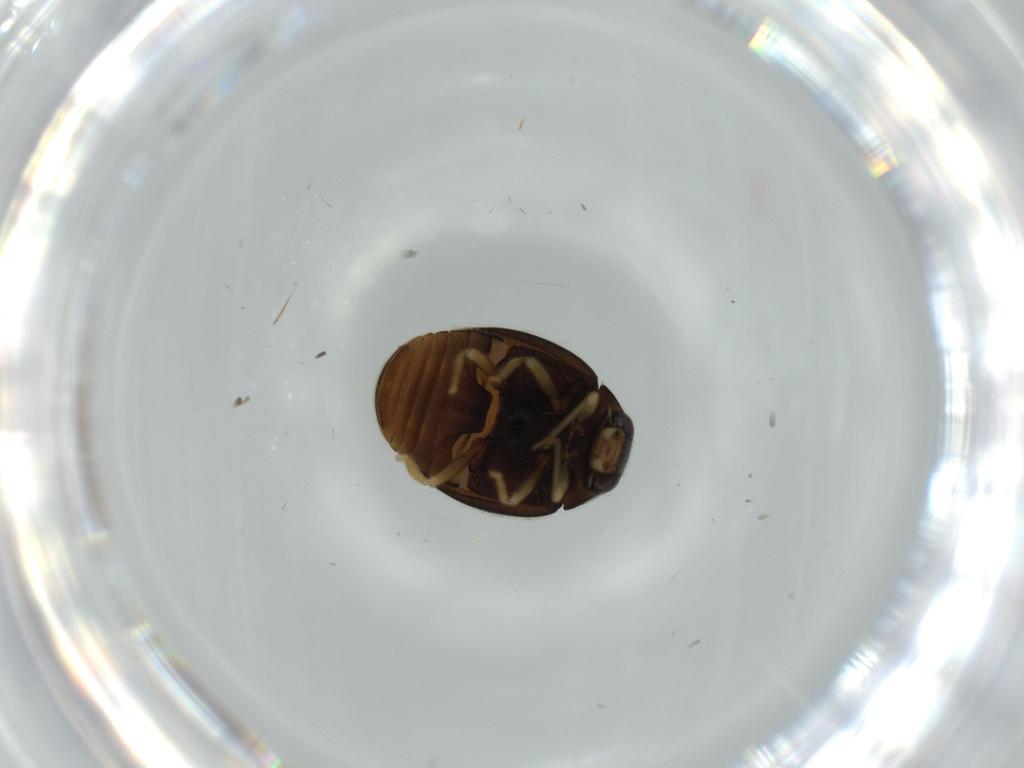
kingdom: Animalia
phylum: Arthropoda
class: Insecta
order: Coleoptera
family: Coccinellidae
